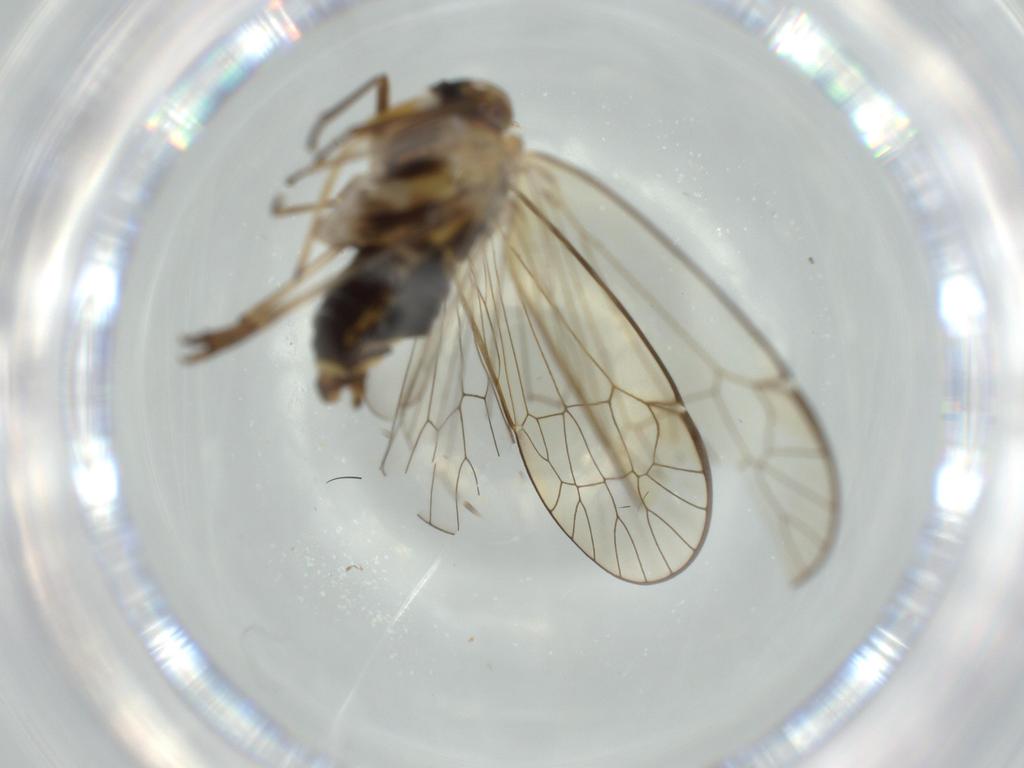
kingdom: Animalia
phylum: Arthropoda
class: Insecta
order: Hemiptera
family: Kinnaridae
